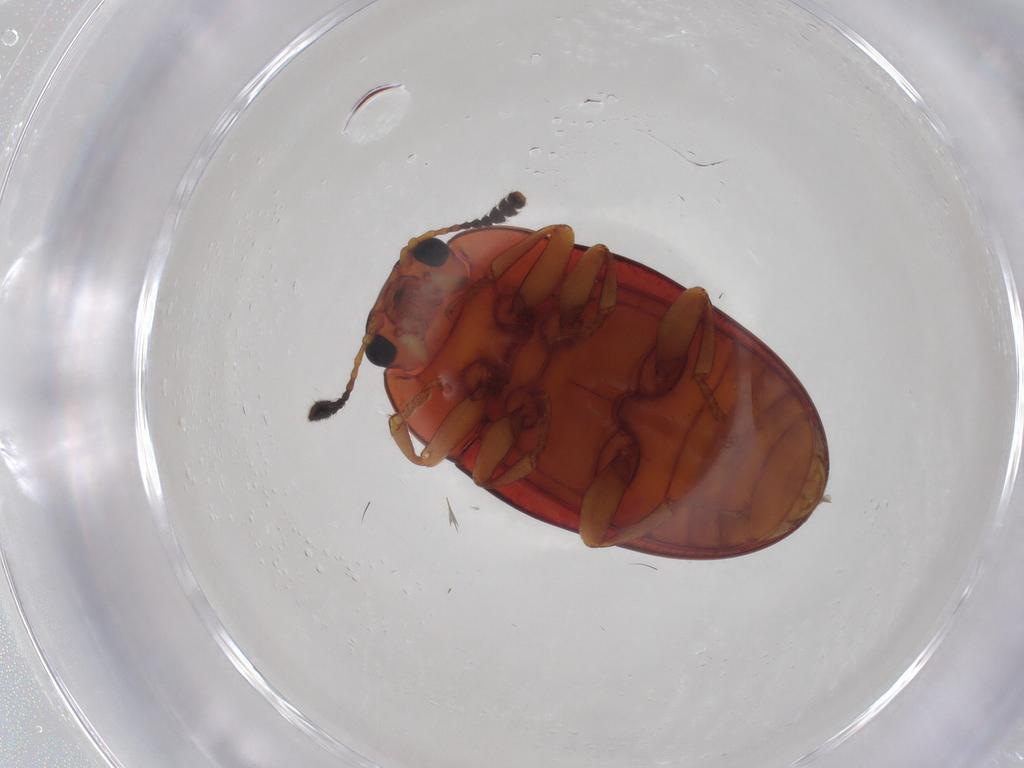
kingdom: Animalia
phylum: Arthropoda
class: Insecta
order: Coleoptera
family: Erotylidae
